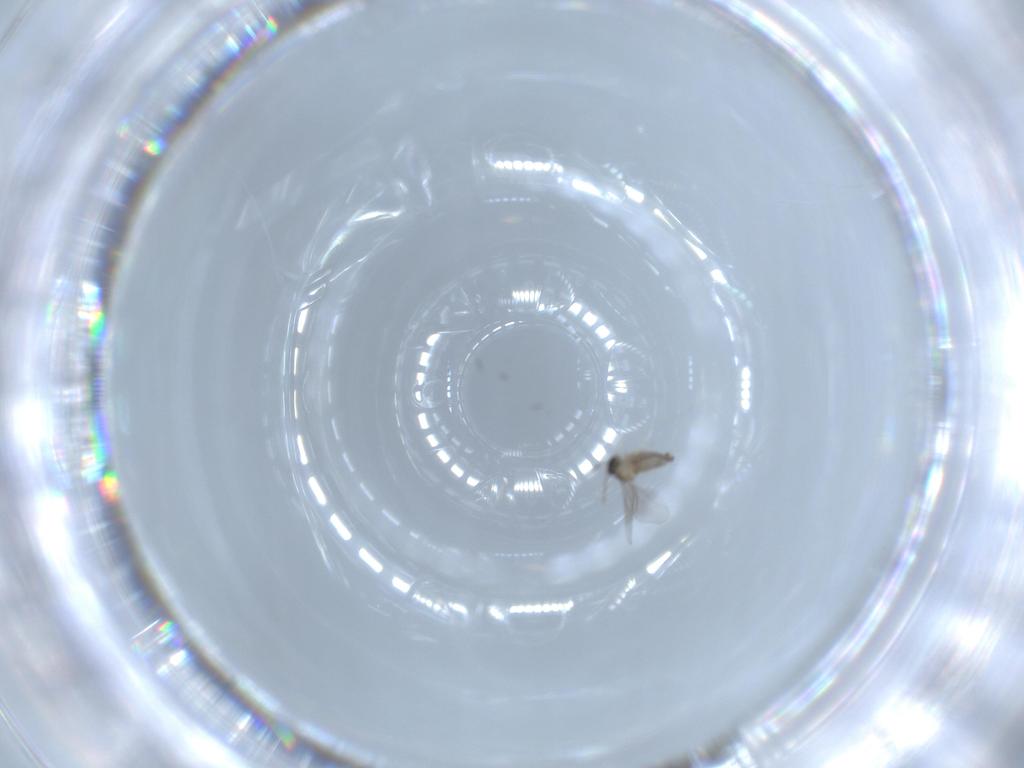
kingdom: Animalia
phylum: Arthropoda
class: Insecta
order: Diptera
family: Cecidomyiidae
